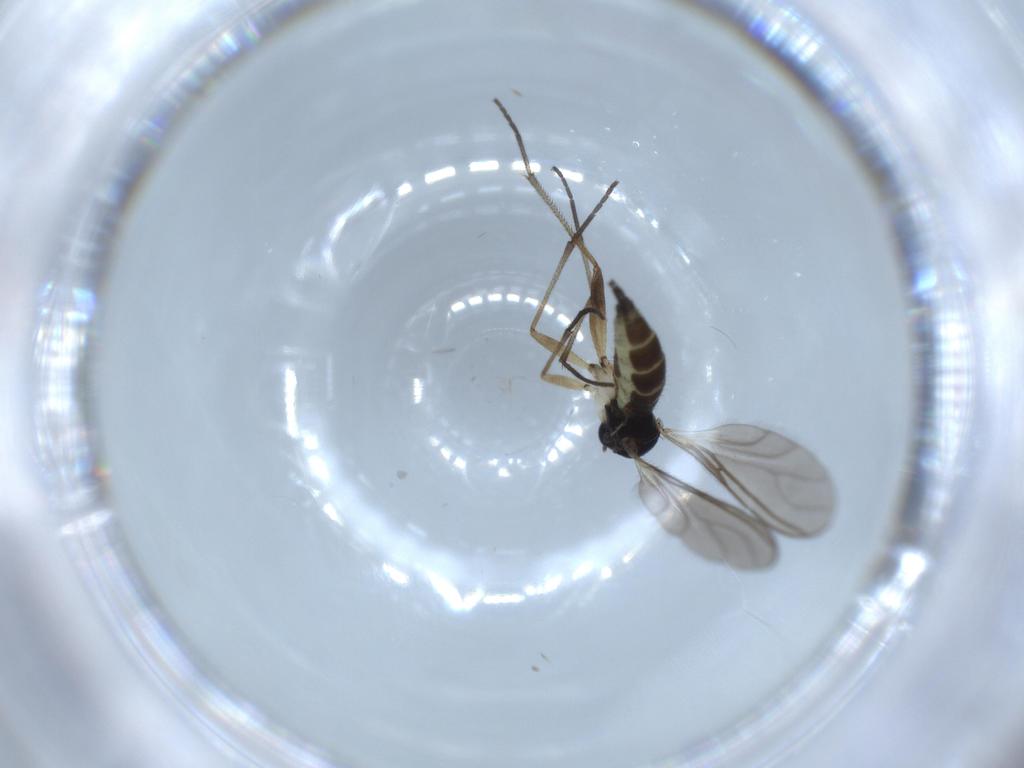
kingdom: Animalia
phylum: Arthropoda
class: Insecta
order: Diptera
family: Sciaridae
